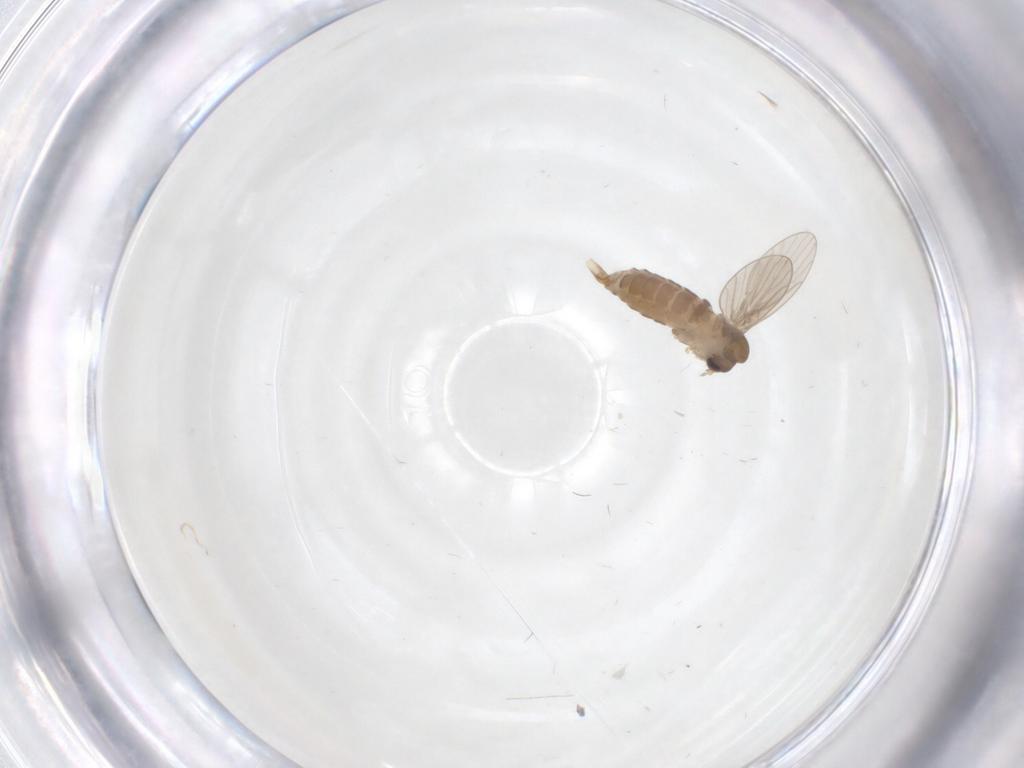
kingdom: Animalia
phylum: Arthropoda
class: Insecta
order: Diptera
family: Psychodidae
